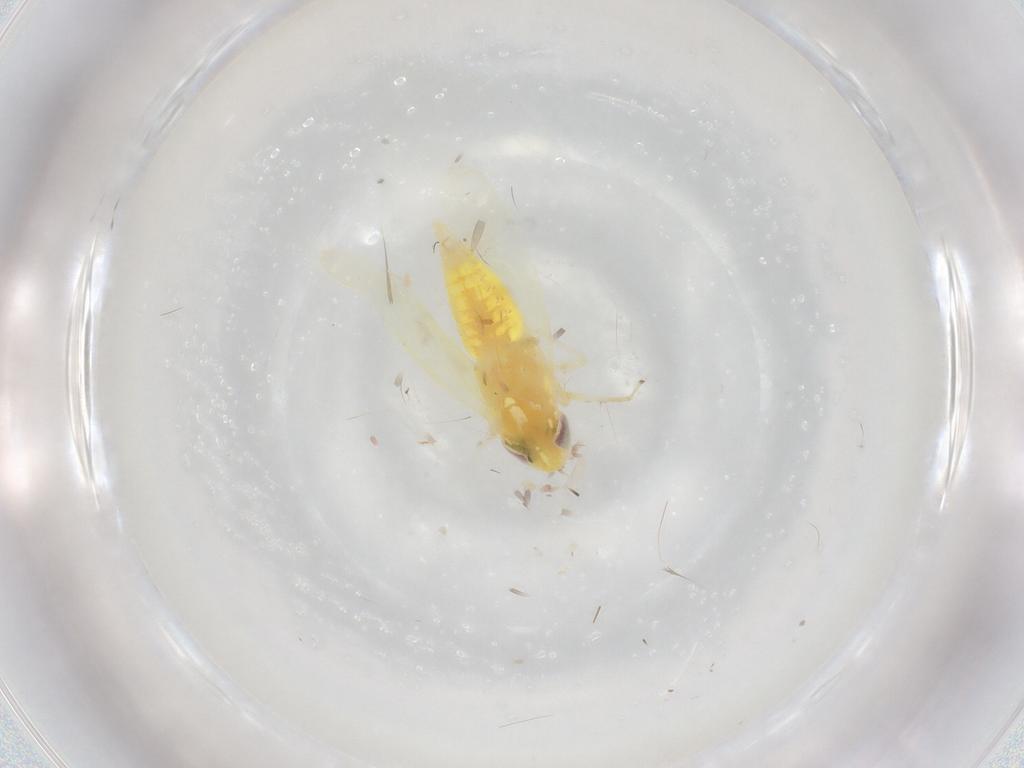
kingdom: Animalia
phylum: Arthropoda
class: Insecta
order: Hemiptera
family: Cicadellidae
